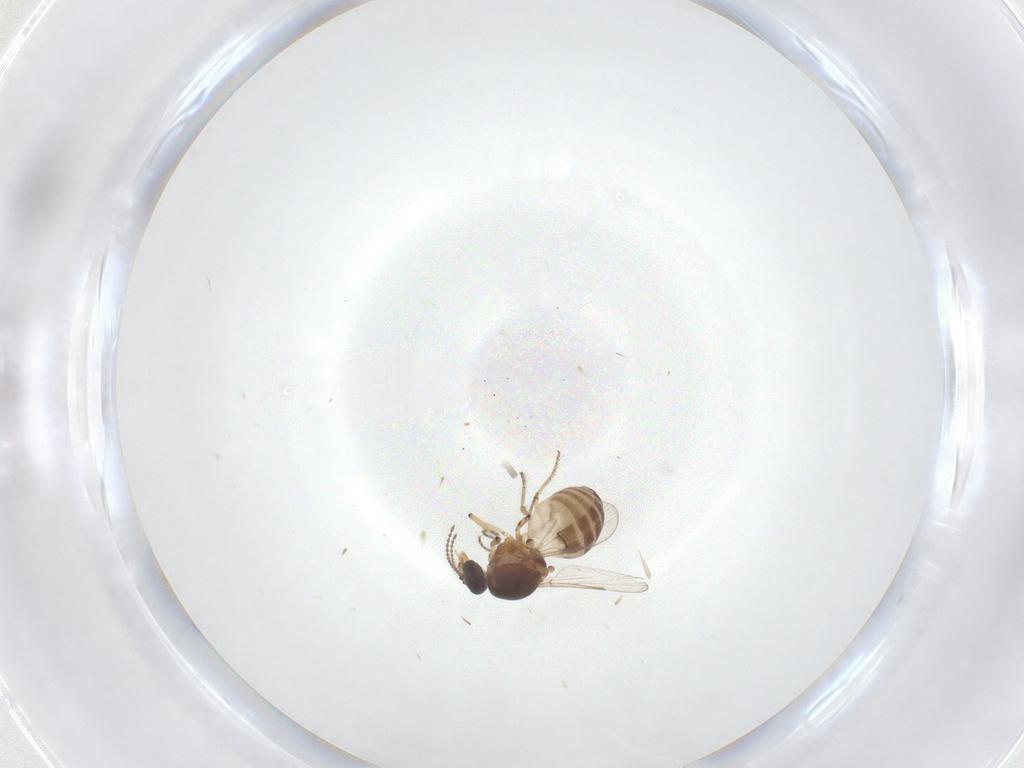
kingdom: Animalia
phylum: Arthropoda
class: Insecta
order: Diptera
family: Ceratopogonidae
